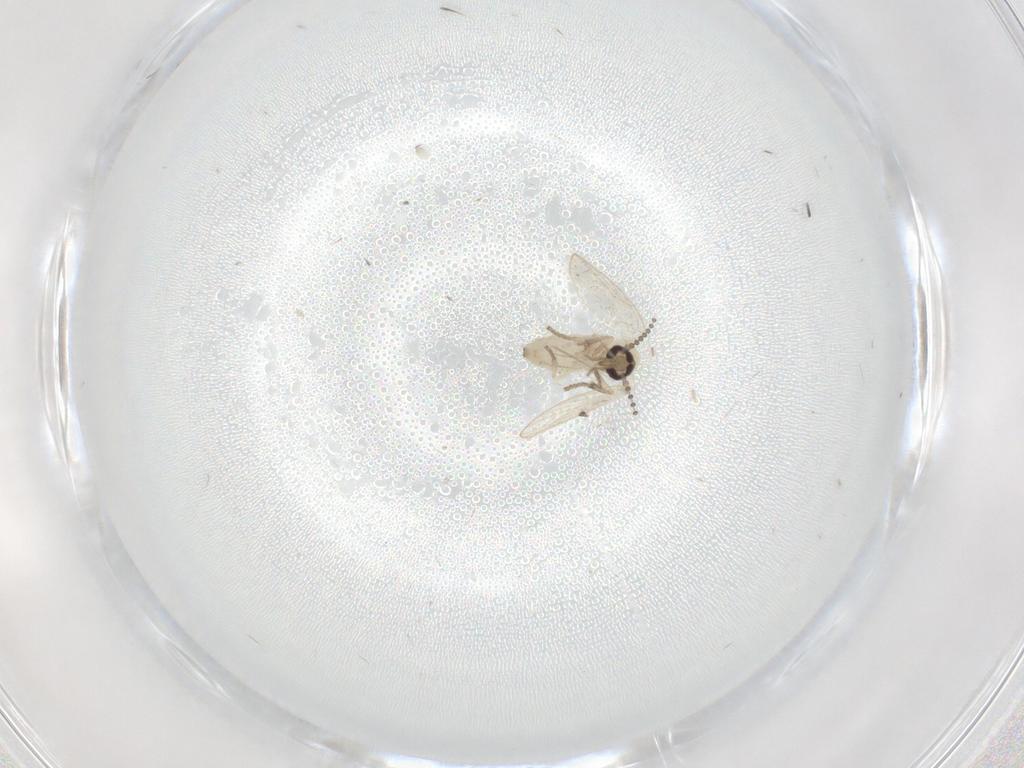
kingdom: Animalia
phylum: Arthropoda
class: Insecta
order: Diptera
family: Psychodidae
